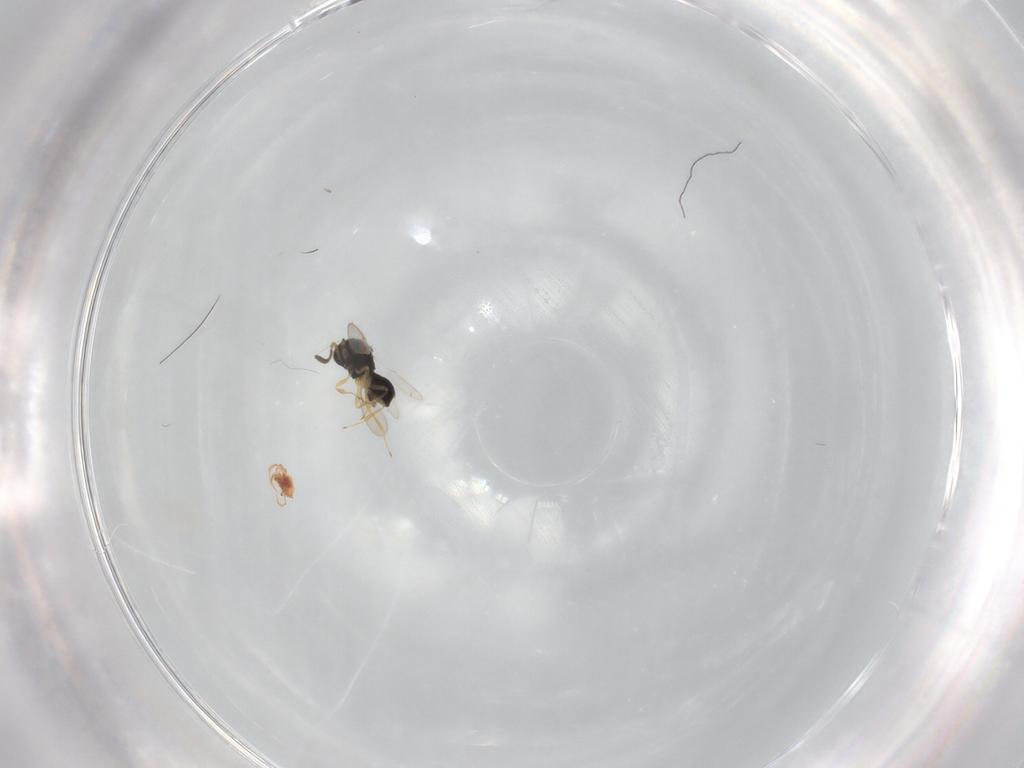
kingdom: Animalia
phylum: Arthropoda
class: Insecta
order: Hymenoptera
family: Scelionidae
